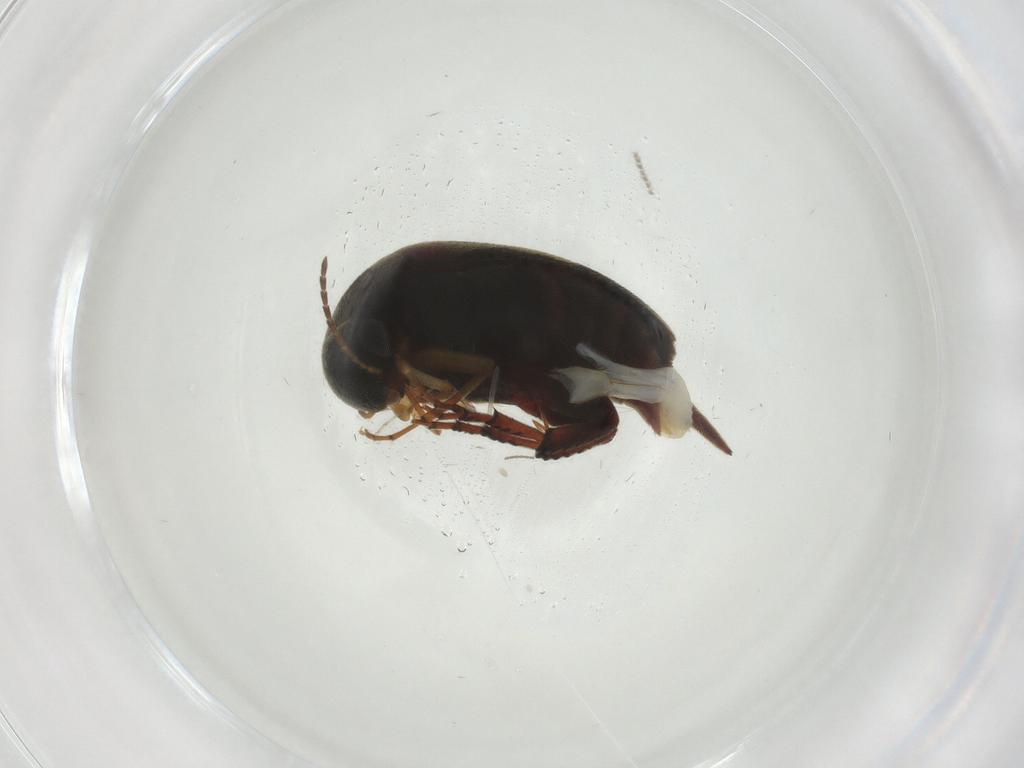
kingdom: Animalia
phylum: Arthropoda
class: Insecta
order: Coleoptera
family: Mordellidae
